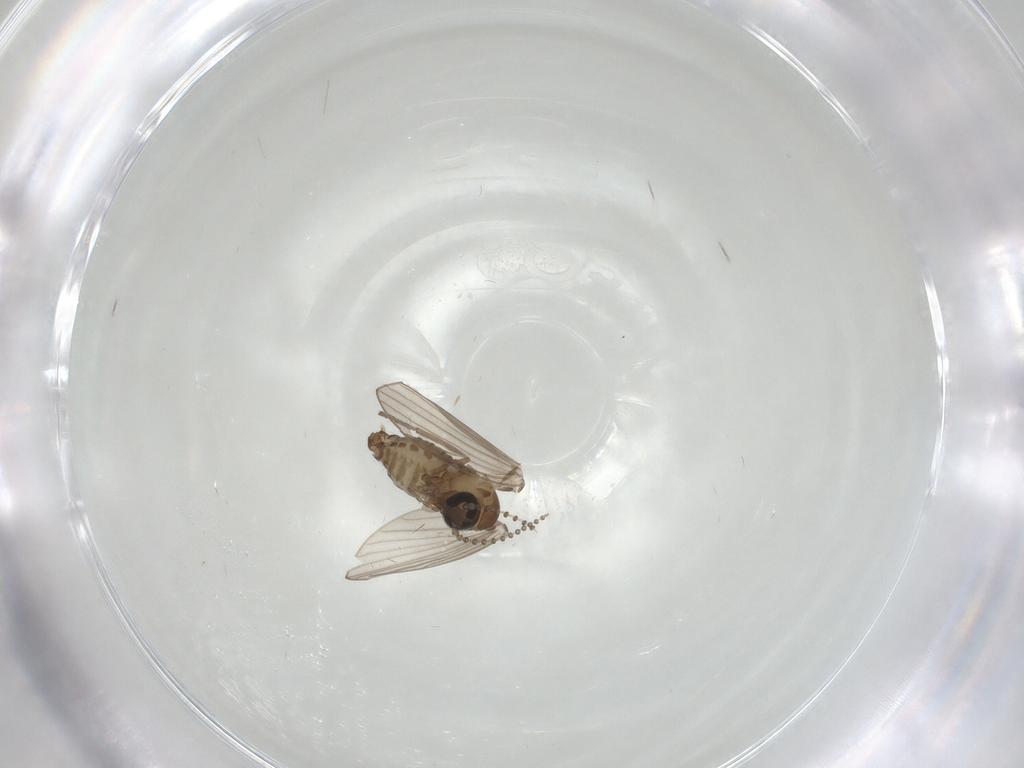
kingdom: Animalia
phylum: Arthropoda
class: Insecta
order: Diptera
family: Psychodidae
